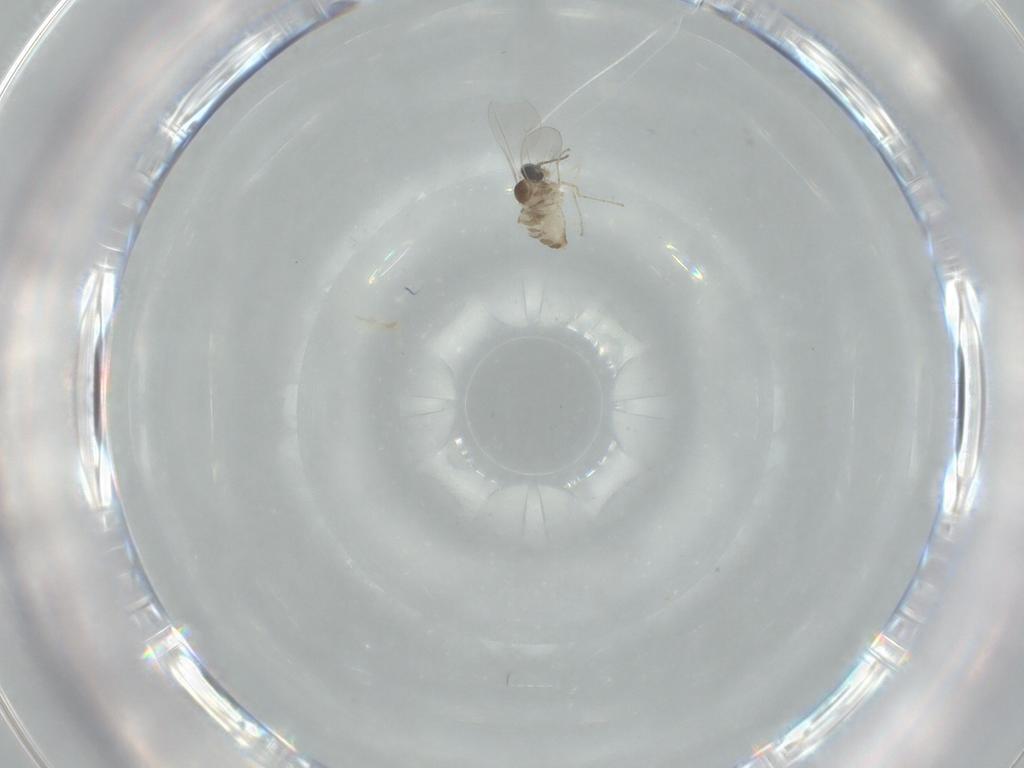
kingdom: Animalia
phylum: Arthropoda
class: Insecta
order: Diptera
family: Cecidomyiidae
